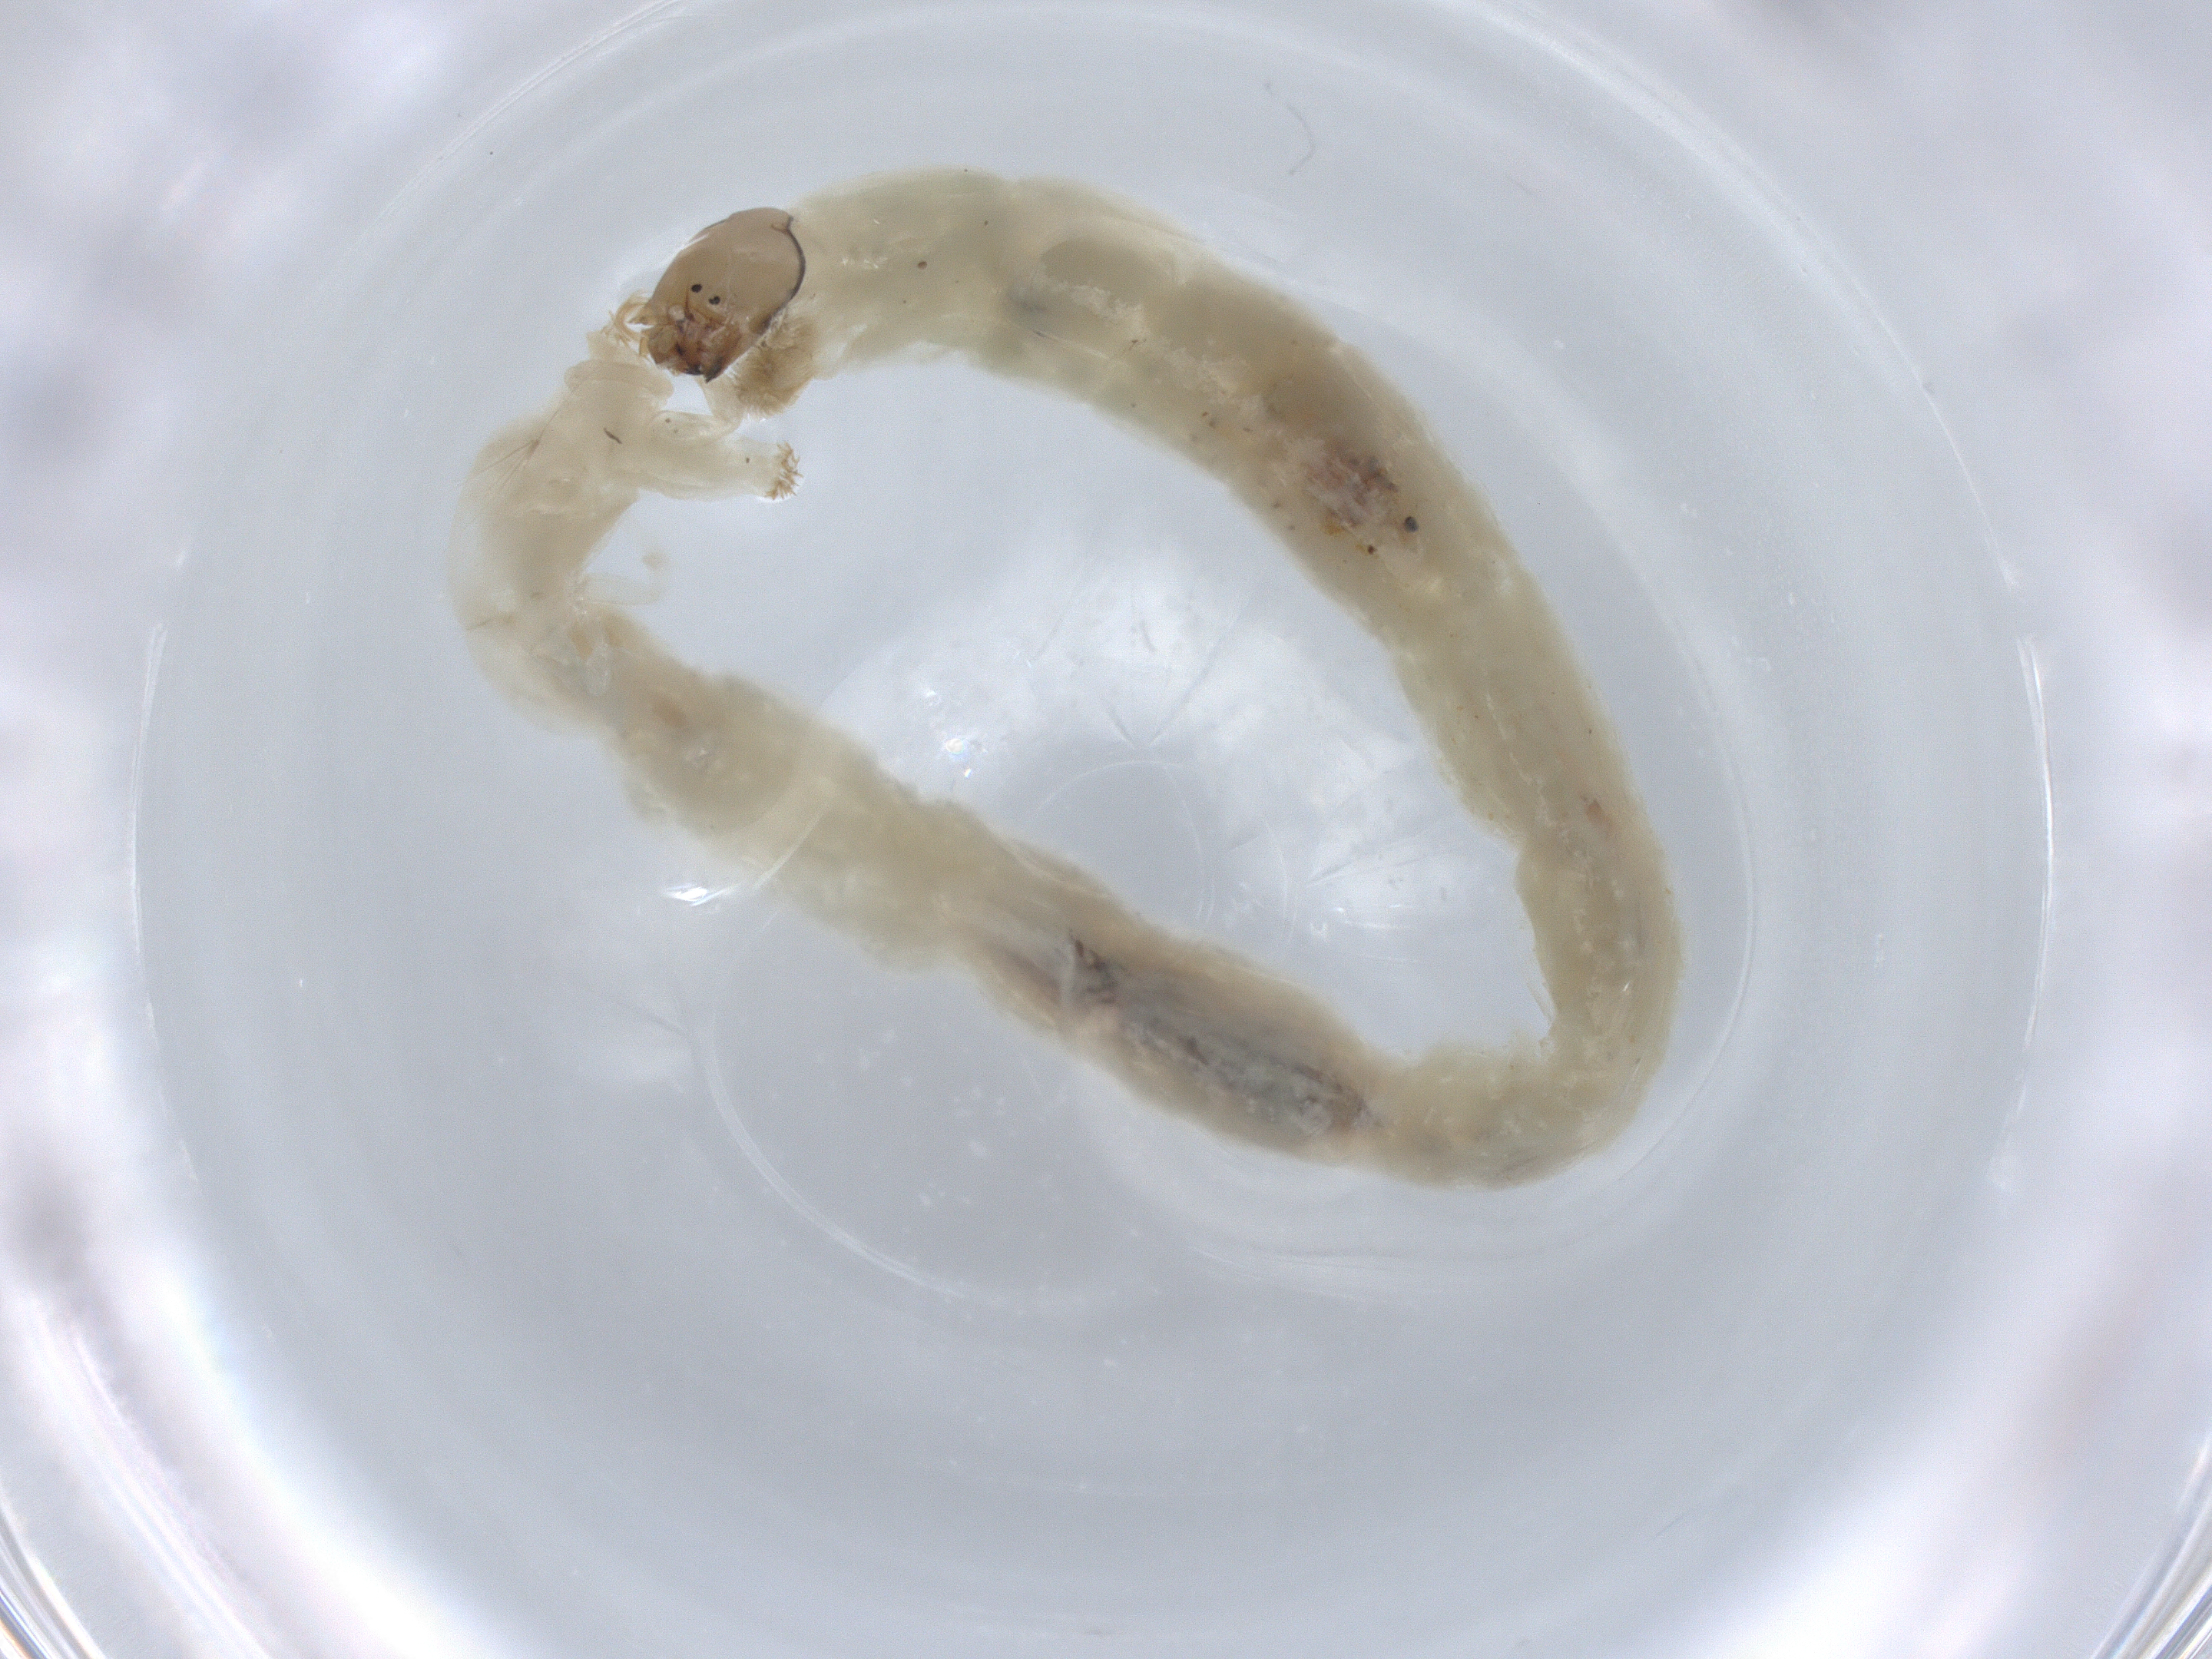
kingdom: Animalia
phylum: Arthropoda
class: Insecta
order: Diptera
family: Chironomidae
